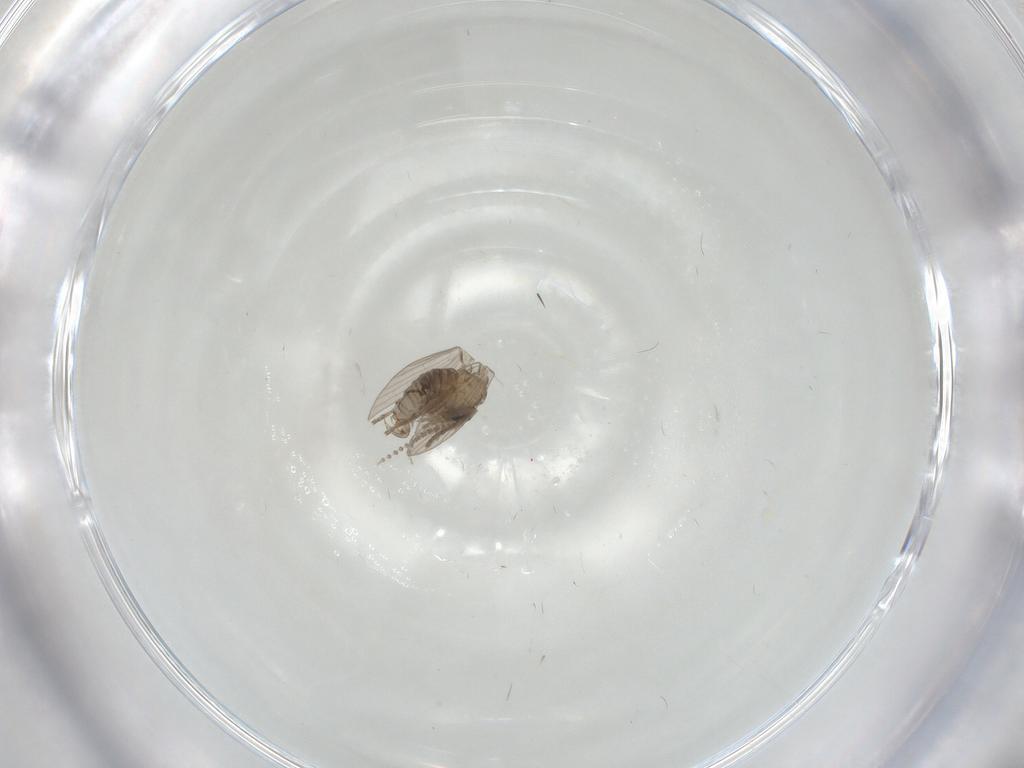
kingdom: Animalia
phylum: Arthropoda
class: Insecta
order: Diptera
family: Psychodidae
